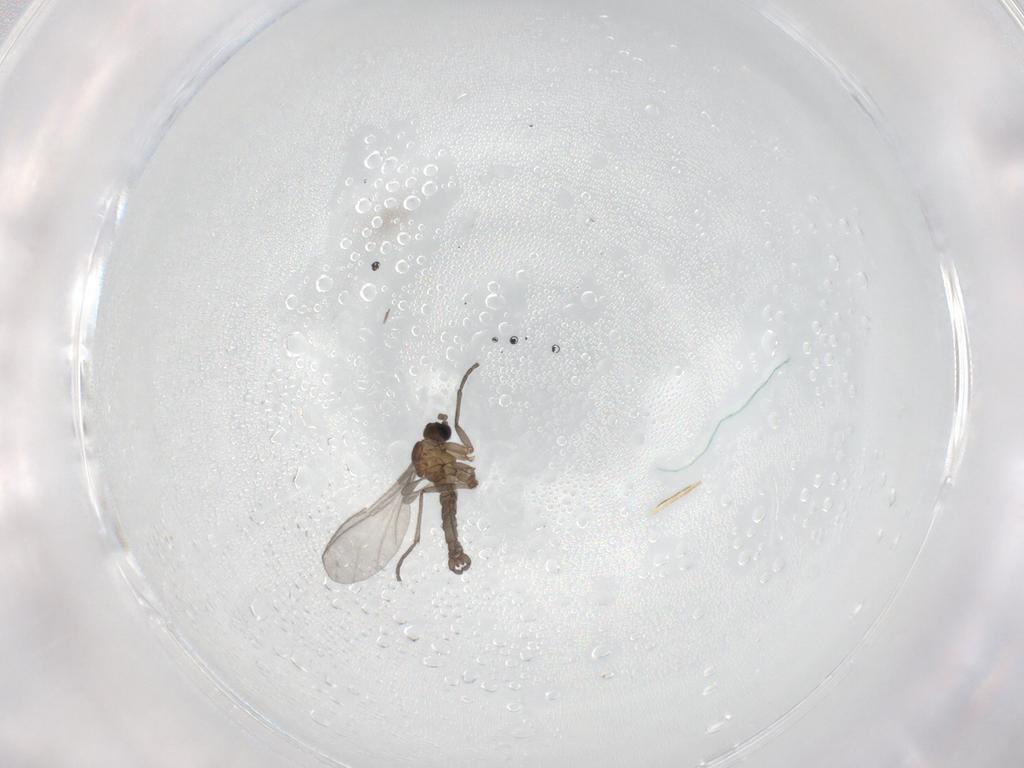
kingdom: Animalia
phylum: Arthropoda
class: Insecta
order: Diptera
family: Sciaridae
